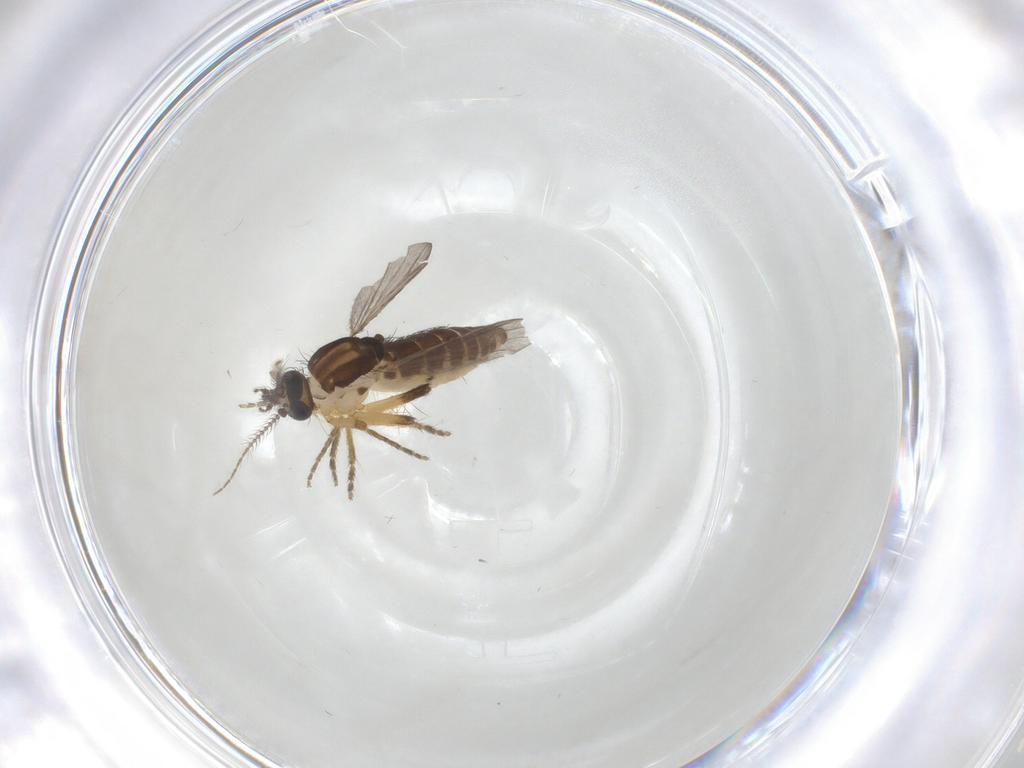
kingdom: Animalia
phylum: Arthropoda
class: Insecta
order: Diptera
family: Ceratopogonidae
